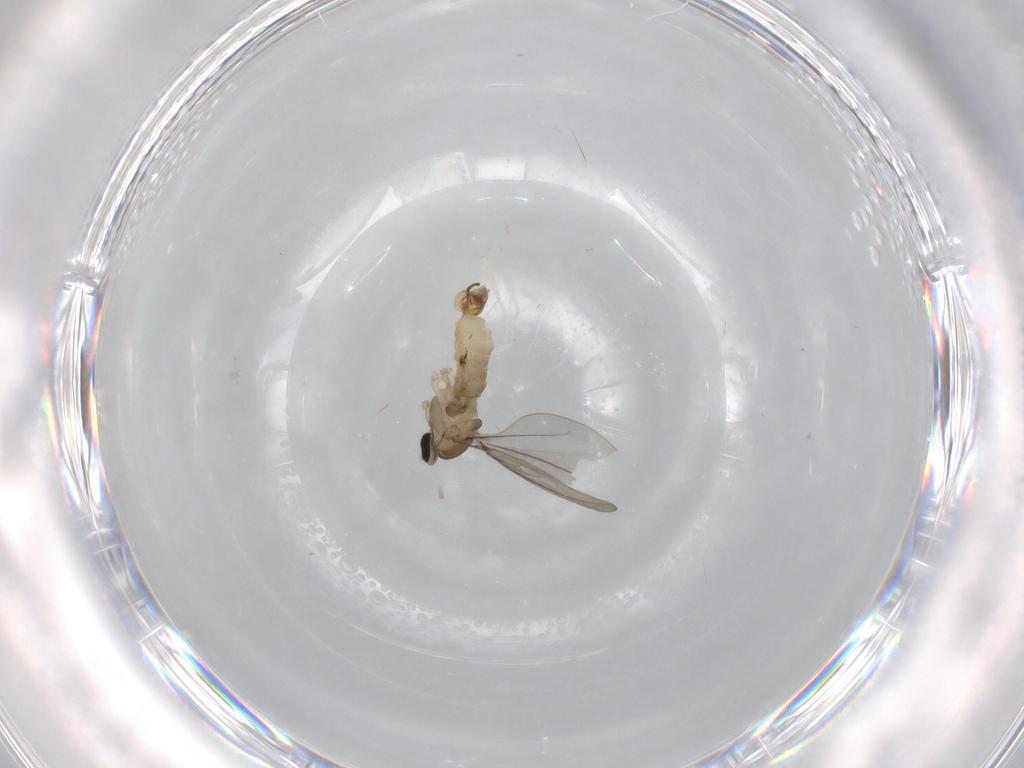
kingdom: Animalia
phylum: Arthropoda
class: Insecta
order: Diptera
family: Cecidomyiidae
